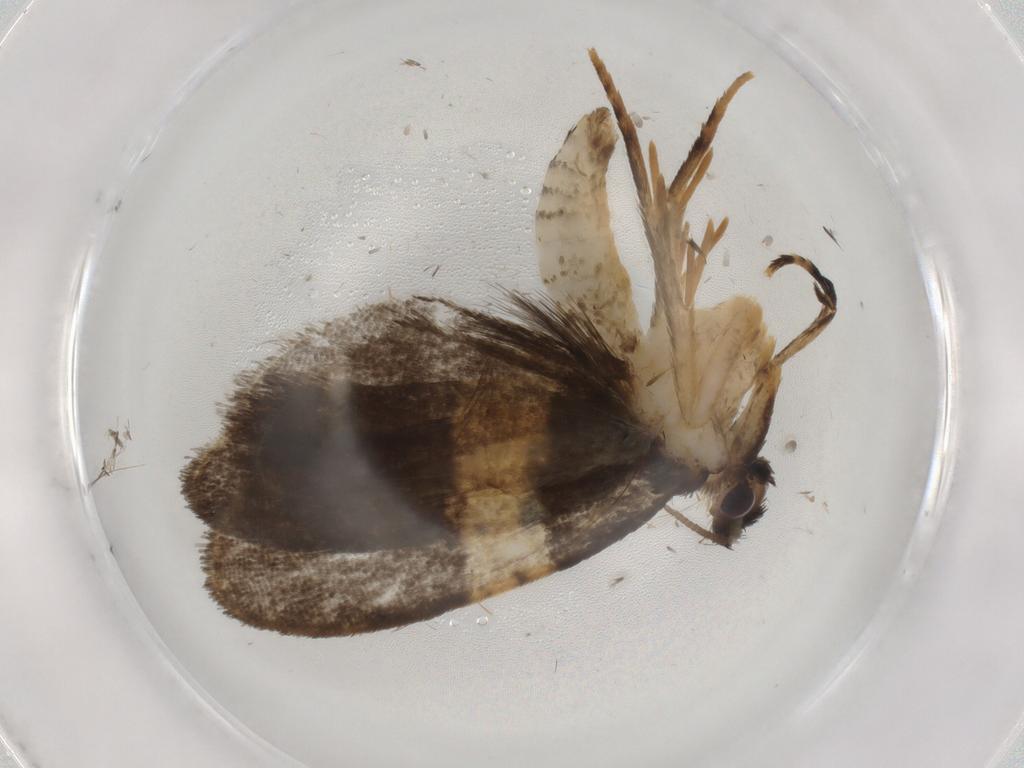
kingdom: Animalia
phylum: Arthropoda
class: Insecta
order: Lepidoptera
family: Psychidae
